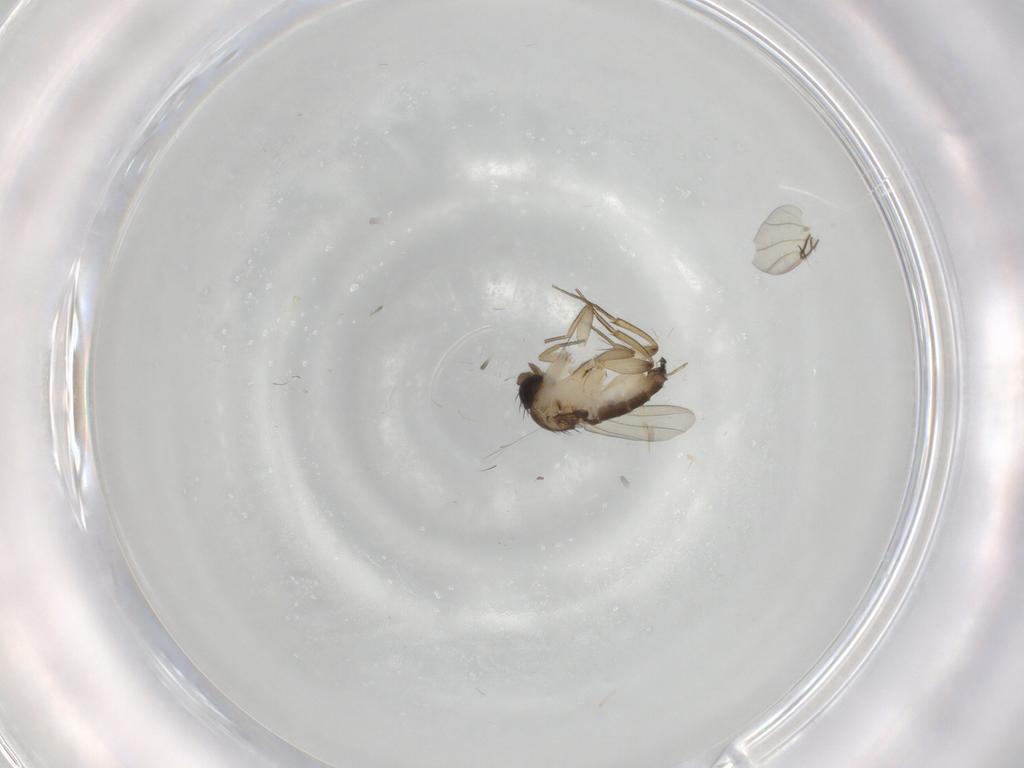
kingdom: Animalia
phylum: Arthropoda
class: Insecta
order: Diptera
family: Phoridae
